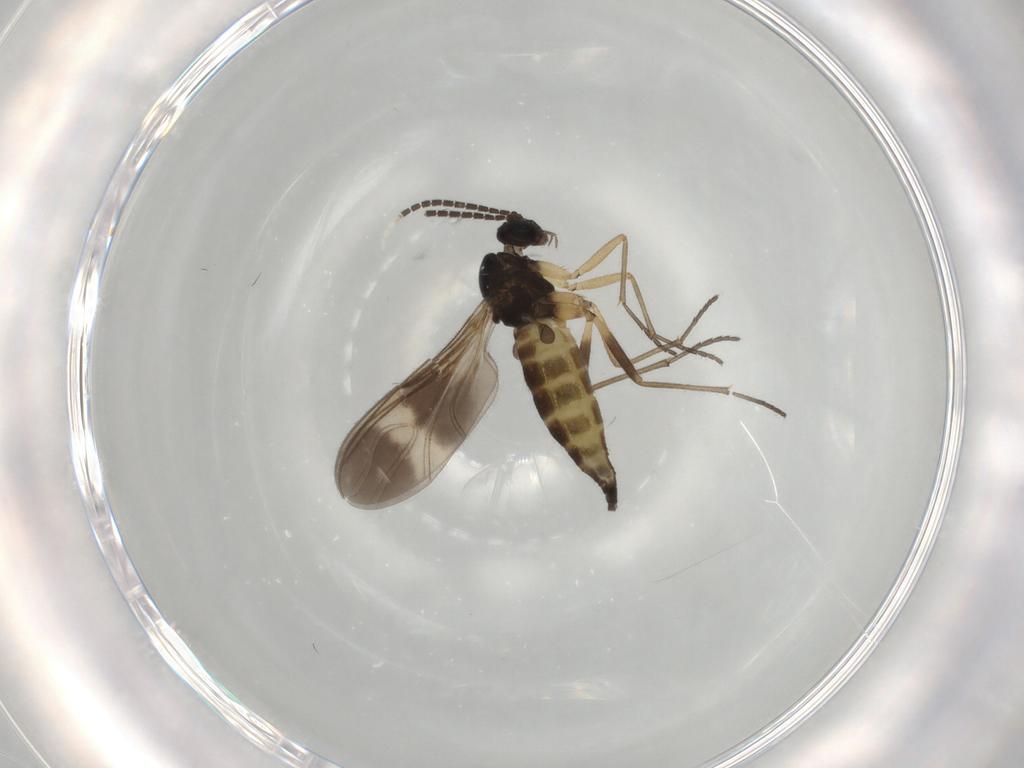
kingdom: Animalia
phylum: Arthropoda
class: Insecta
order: Diptera
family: Sciaridae
